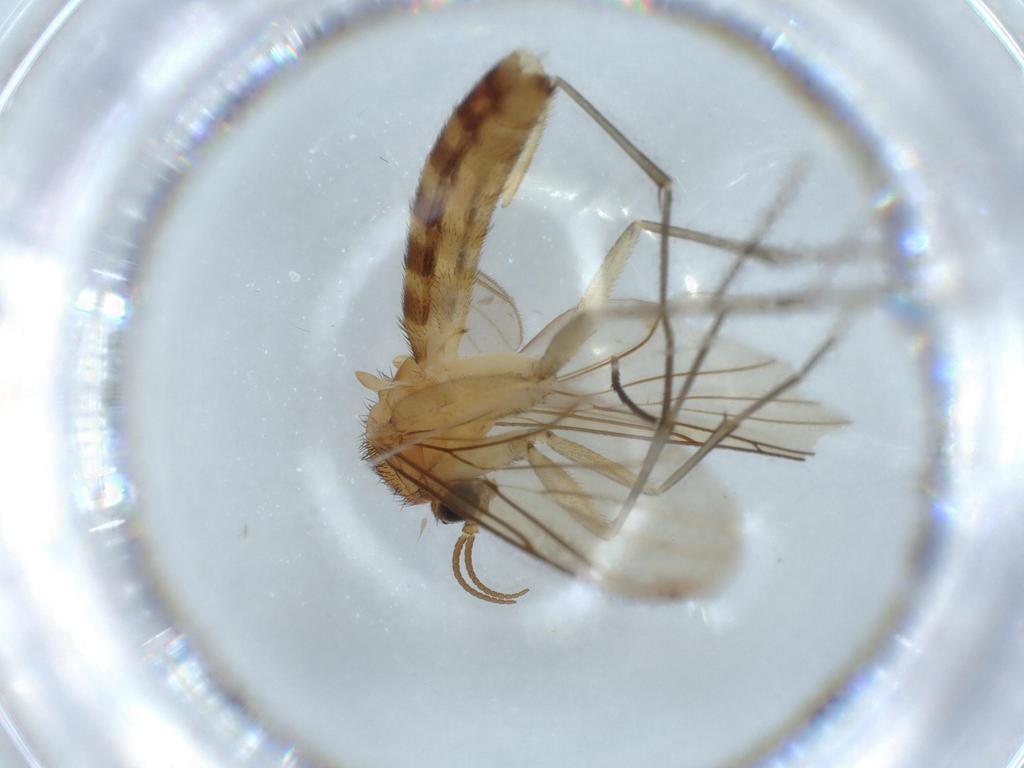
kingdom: Animalia
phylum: Arthropoda
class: Insecta
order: Diptera
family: Sciaridae
